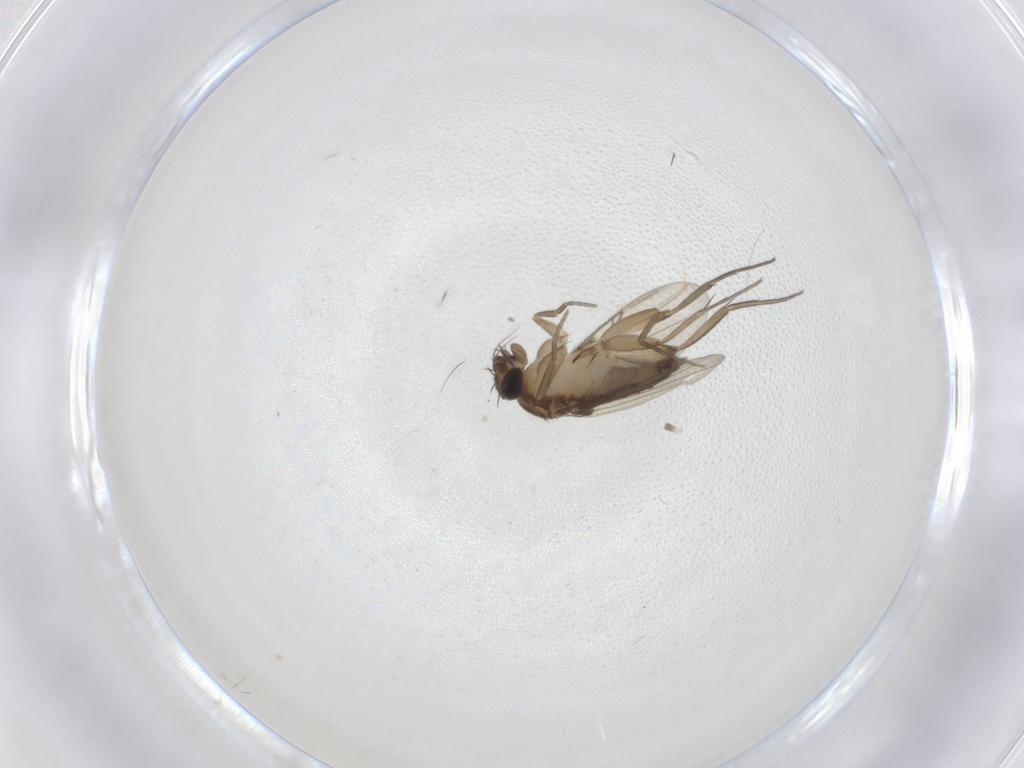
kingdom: Animalia
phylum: Arthropoda
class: Insecta
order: Diptera
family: Phoridae
